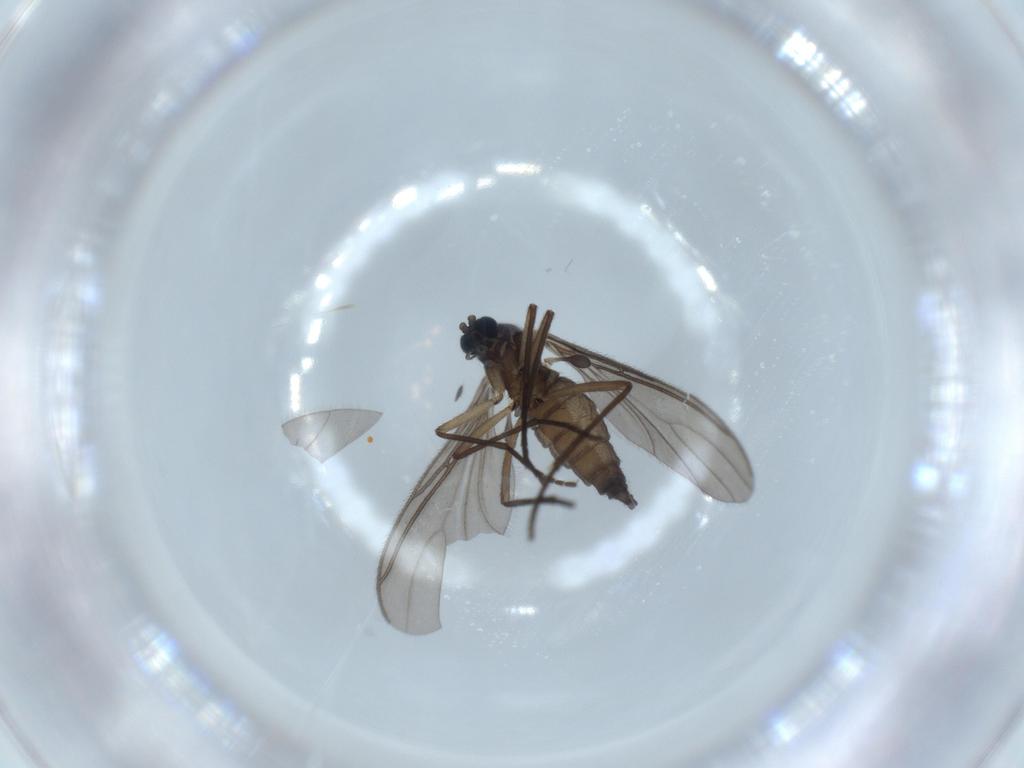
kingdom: Animalia
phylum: Arthropoda
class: Insecta
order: Diptera
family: Sciaridae
